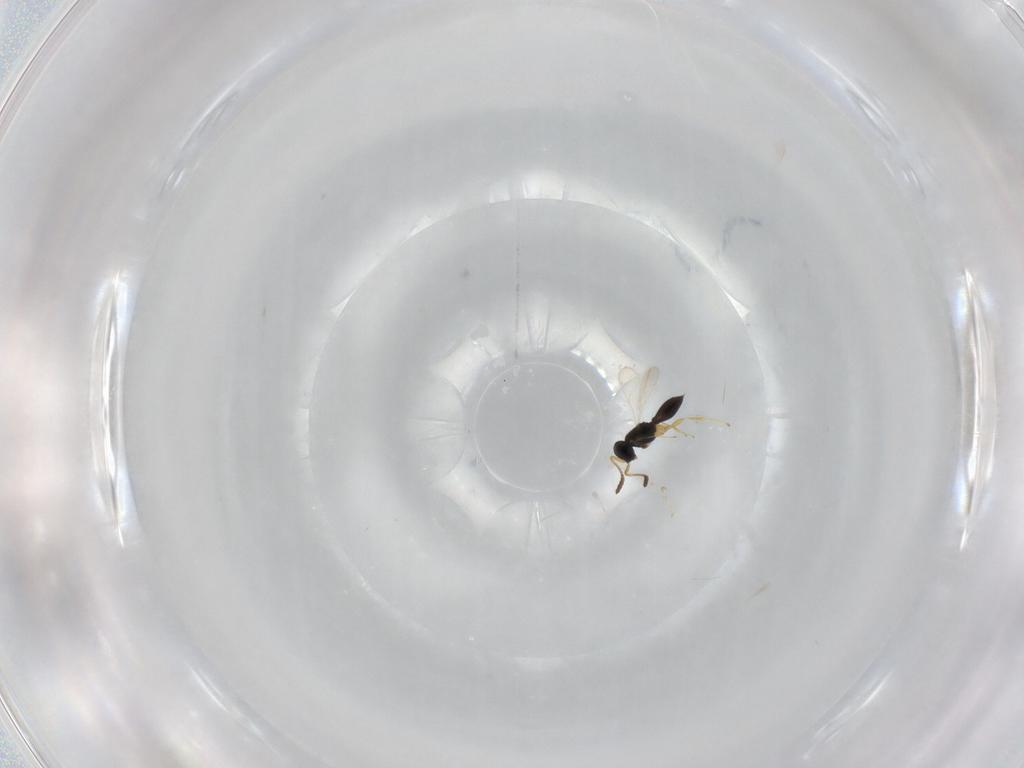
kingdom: Animalia
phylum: Arthropoda
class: Insecta
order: Hymenoptera
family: Scelionidae
